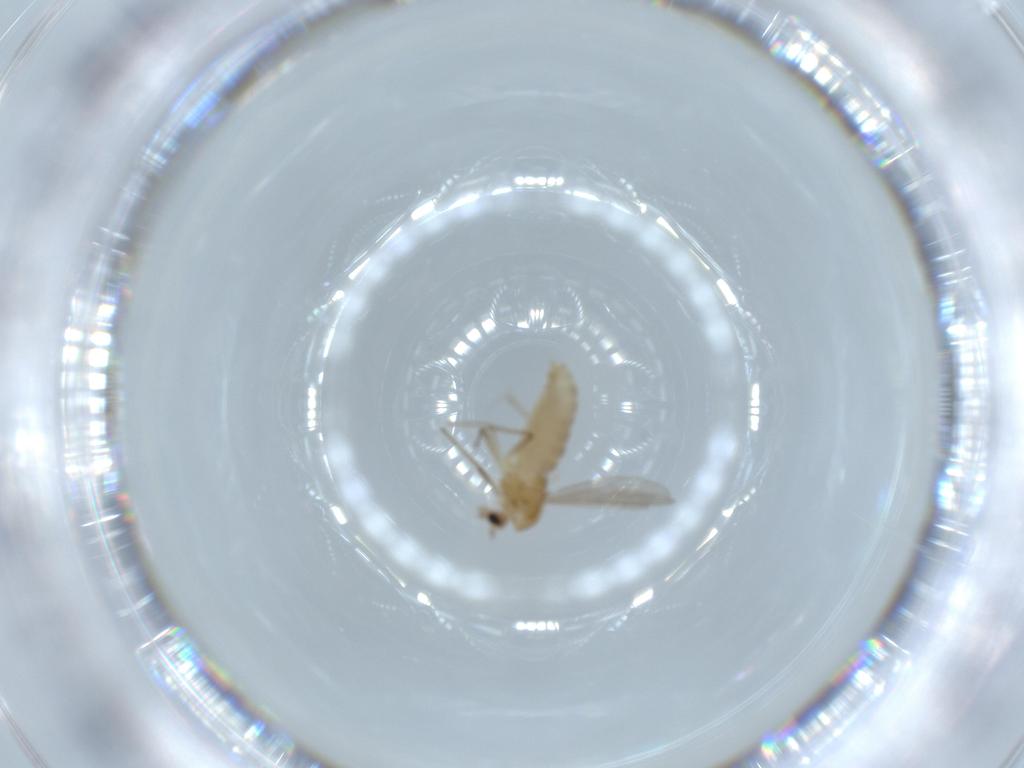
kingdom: Animalia
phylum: Arthropoda
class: Insecta
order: Diptera
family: Chironomidae
